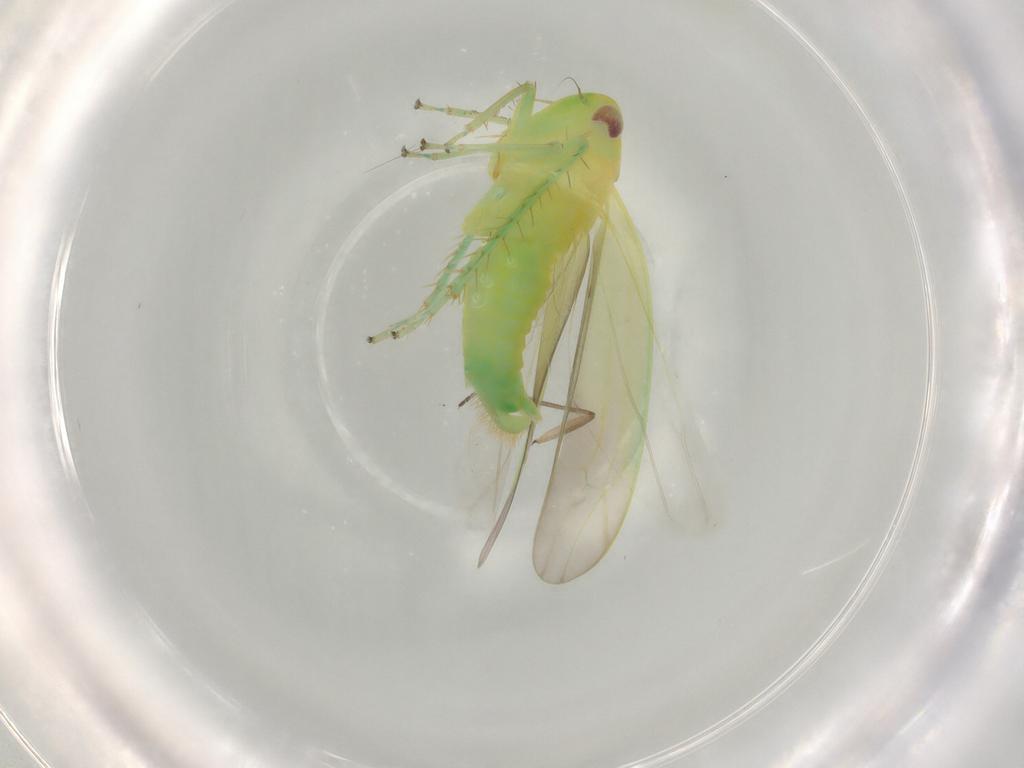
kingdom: Animalia
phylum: Arthropoda
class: Insecta
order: Hemiptera
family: Cicadellidae
